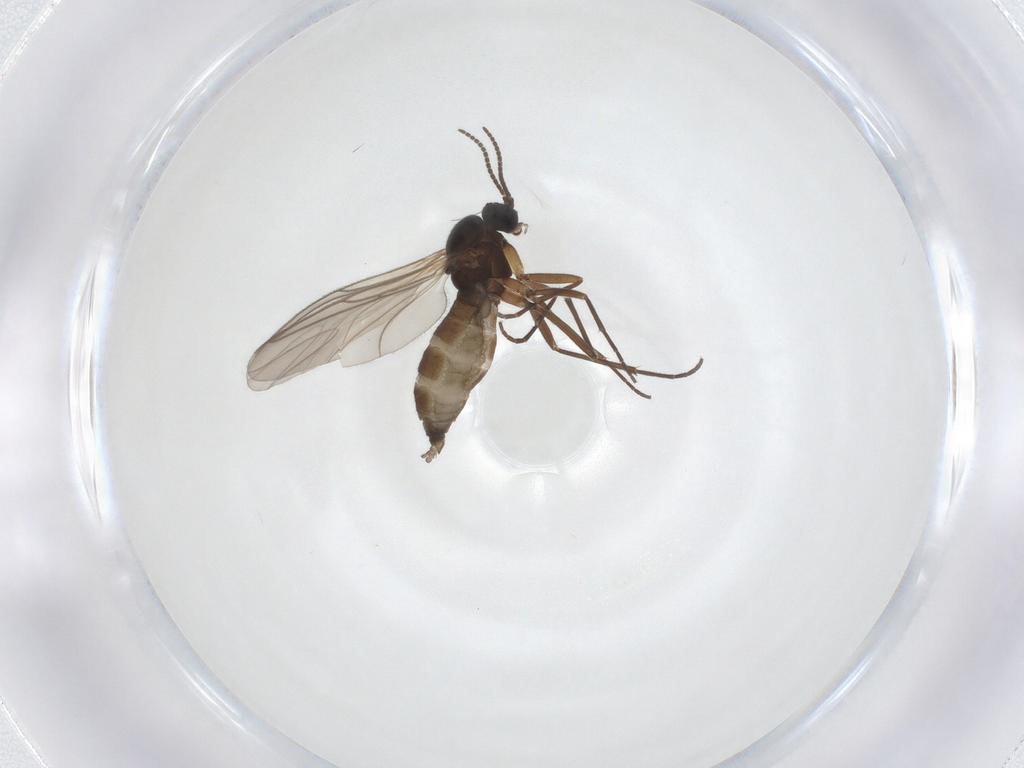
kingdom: Animalia
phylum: Arthropoda
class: Insecta
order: Diptera
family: Sciaridae
